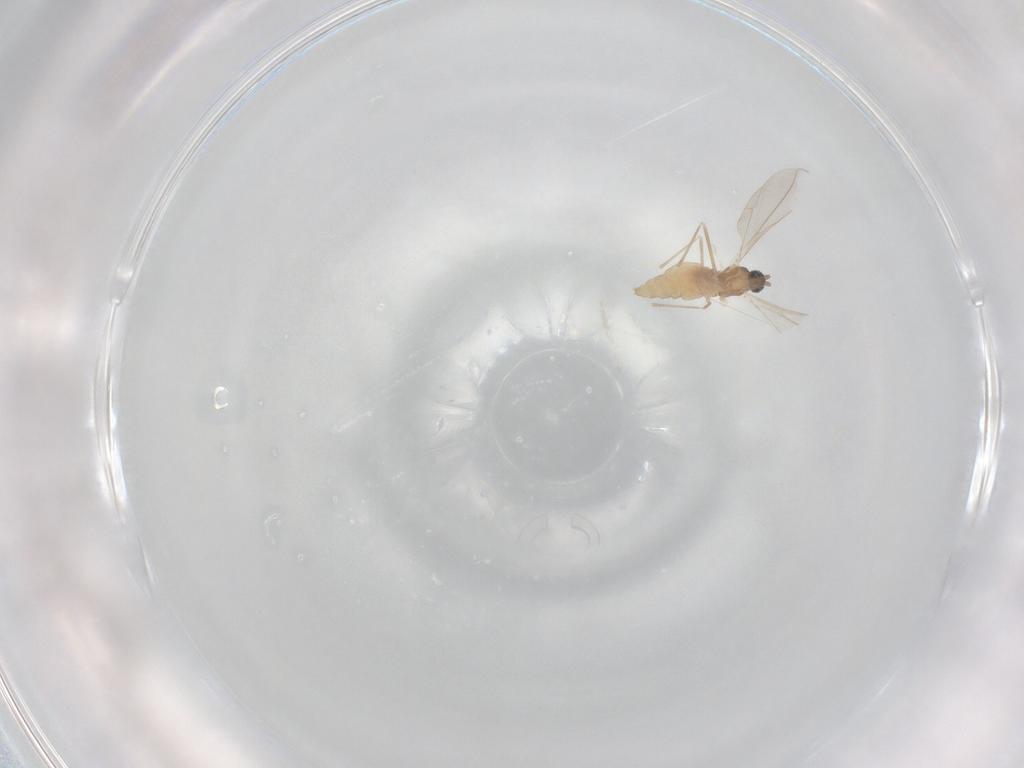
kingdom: Animalia
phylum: Arthropoda
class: Insecta
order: Diptera
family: Cecidomyiidae
